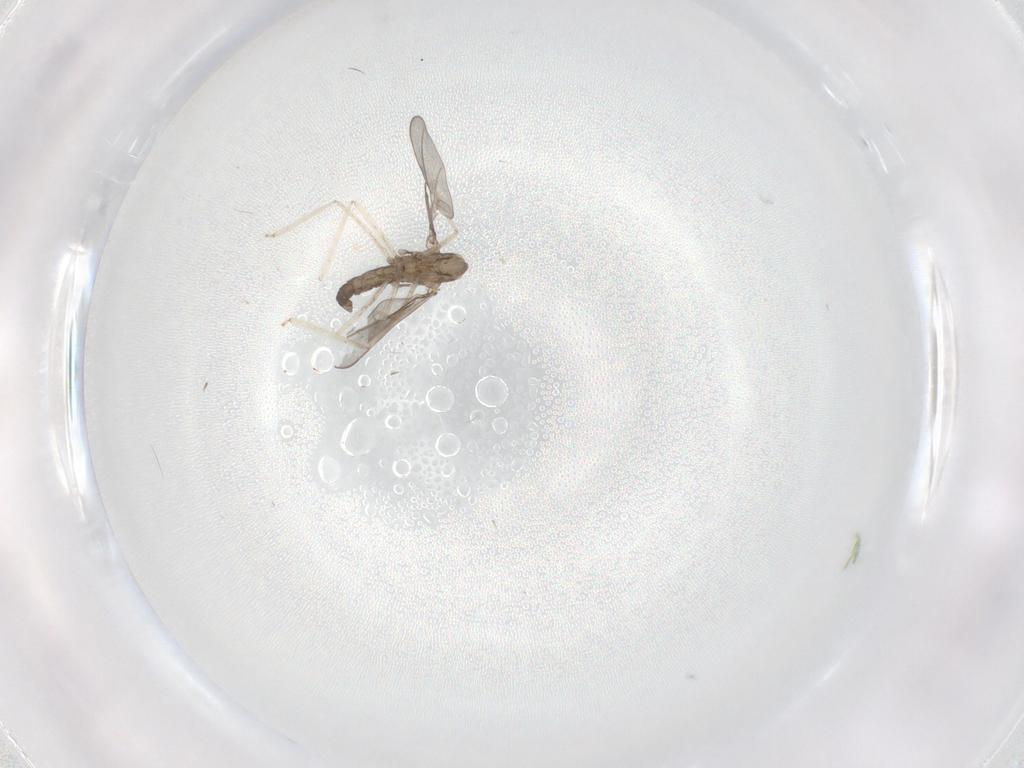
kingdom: Animalia
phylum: Arthropoda
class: Insecta
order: Diptera
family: Cecidomyiidae
